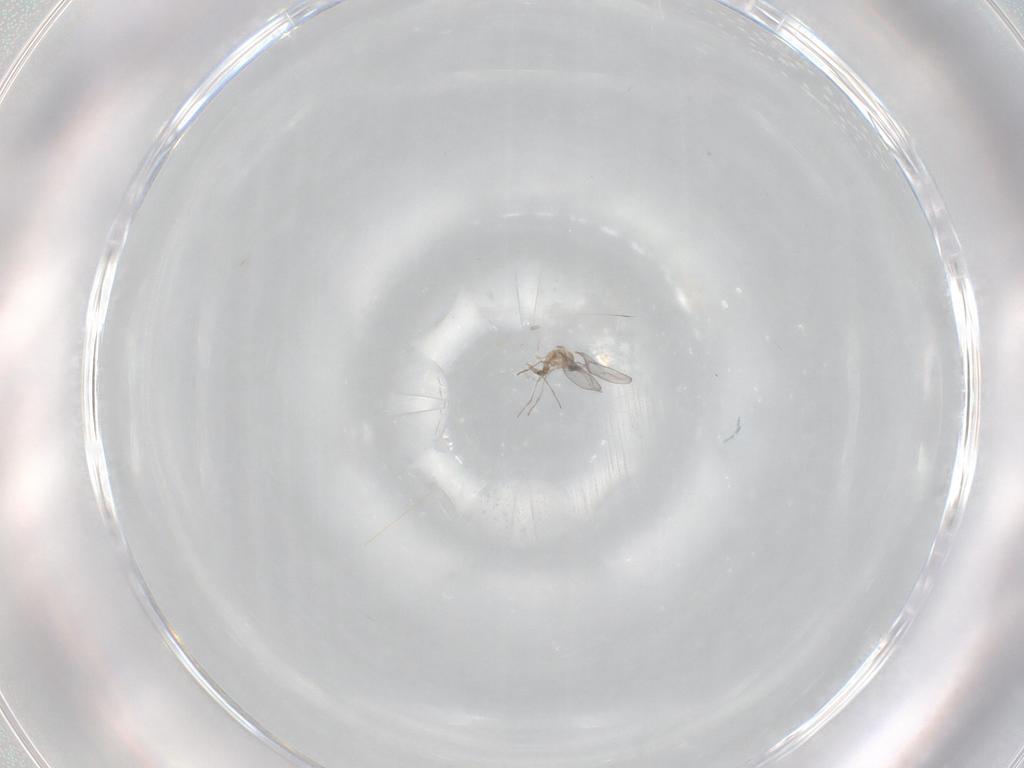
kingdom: Animalia
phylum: Arthropoda
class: Insecta
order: Diptera
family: Cecidomyiidae
